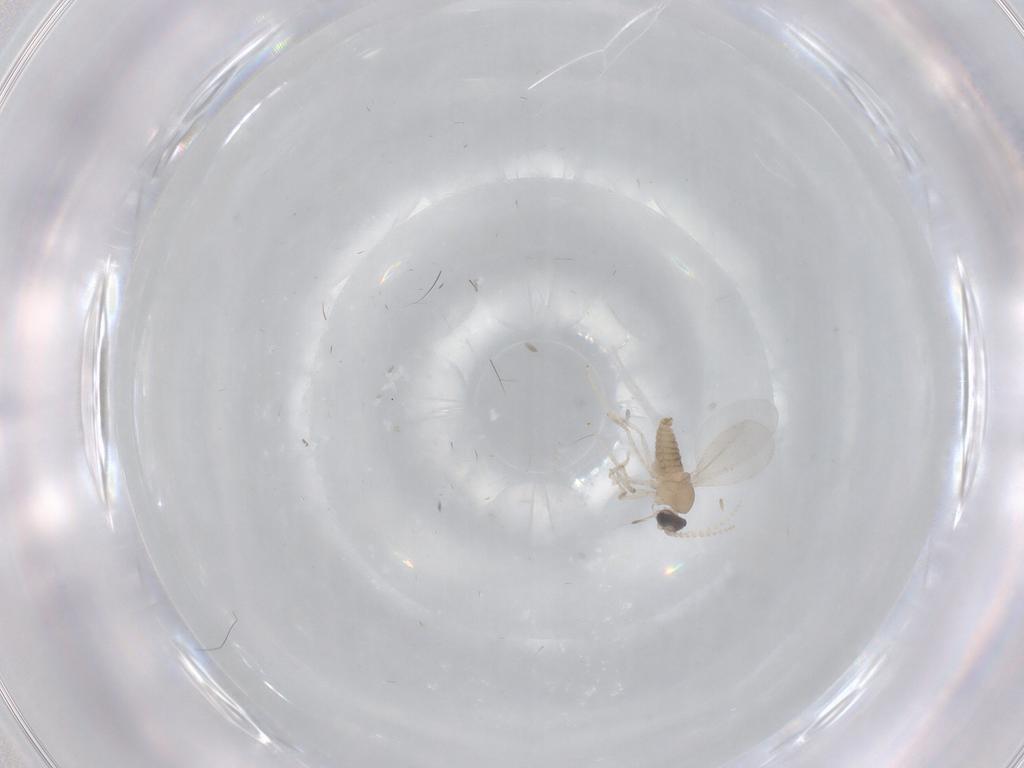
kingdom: Animalia
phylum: Arthropoda
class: Insecta
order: Diptera
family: Cecidomyiidae
